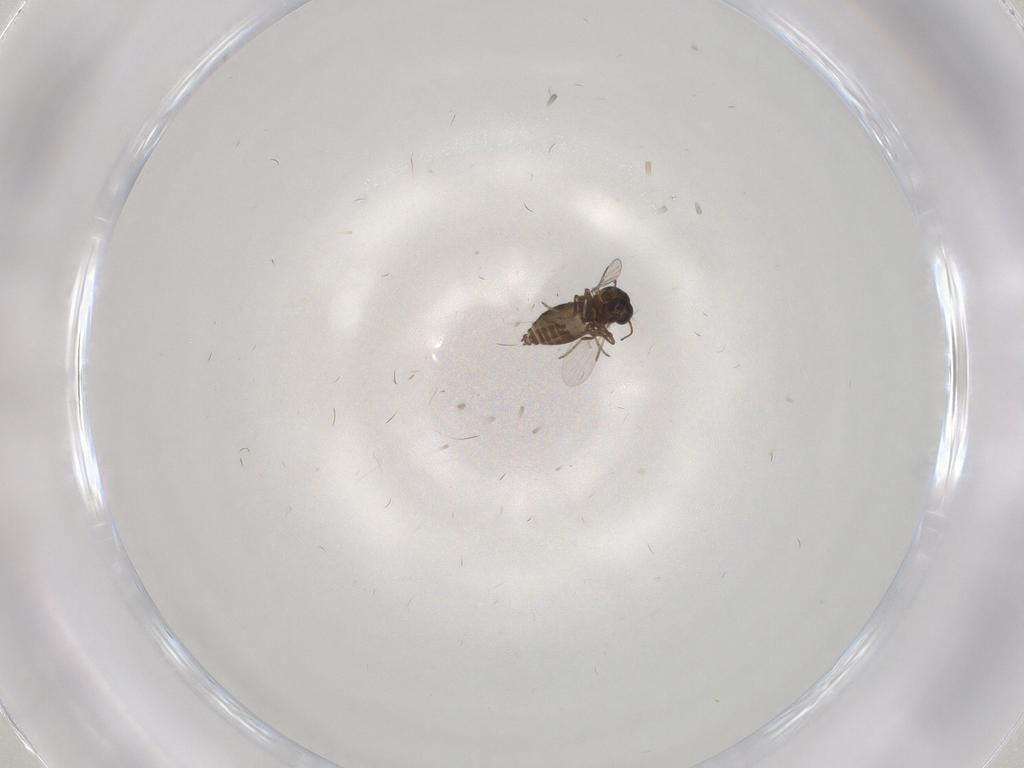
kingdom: Animalia
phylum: Arthropoda
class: Insecta
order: Diptera
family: Ceratopogonidae
